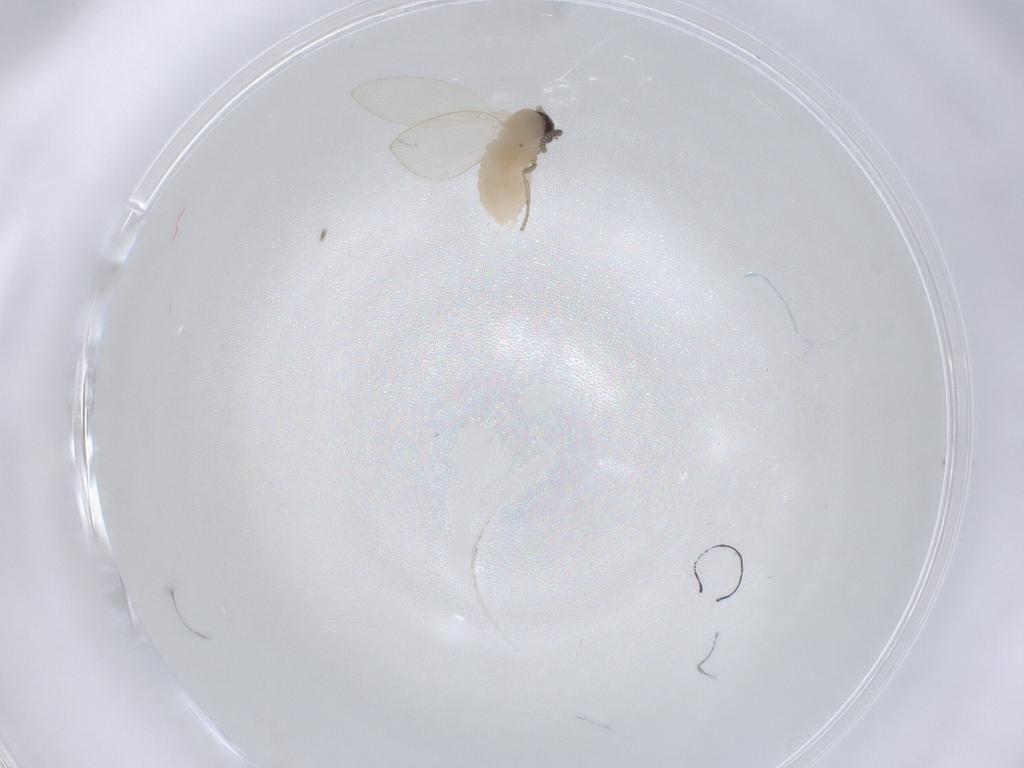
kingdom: Animalia
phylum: Arthropoda
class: Insecta
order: Diptera
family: Psychodidae
